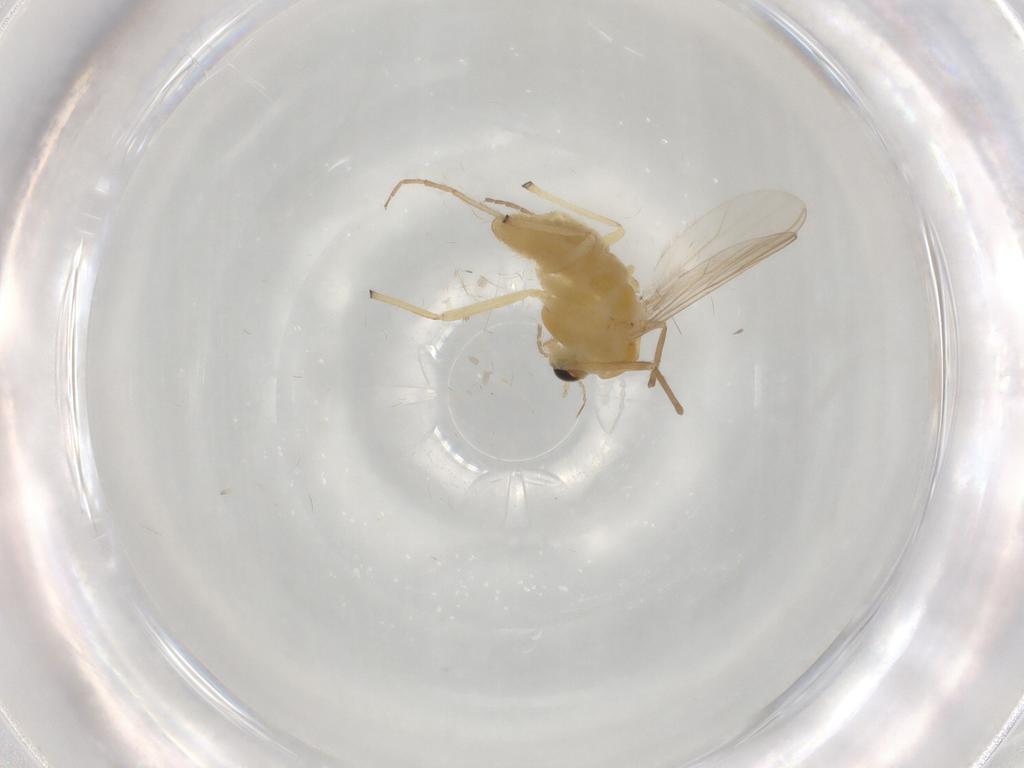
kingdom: Animalia
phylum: Arthropoda
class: Insecta
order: Diptera
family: Chironomidae
